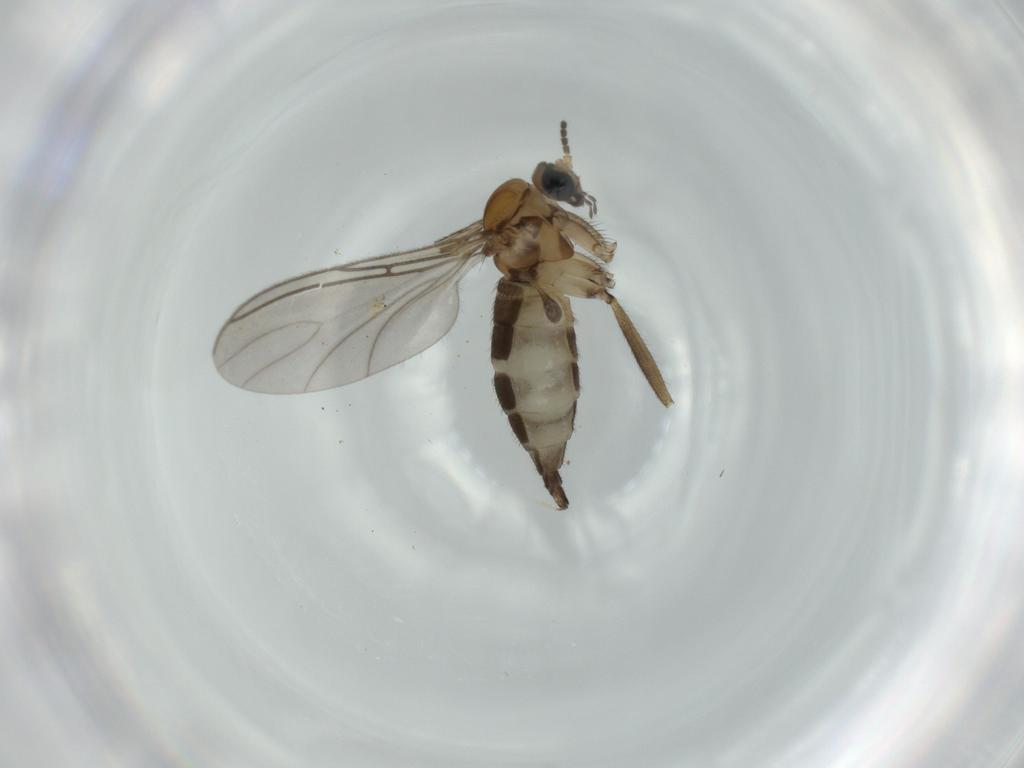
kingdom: Animalia
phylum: Arthropoda
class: Insecta
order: Diptera
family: Sciaridae
